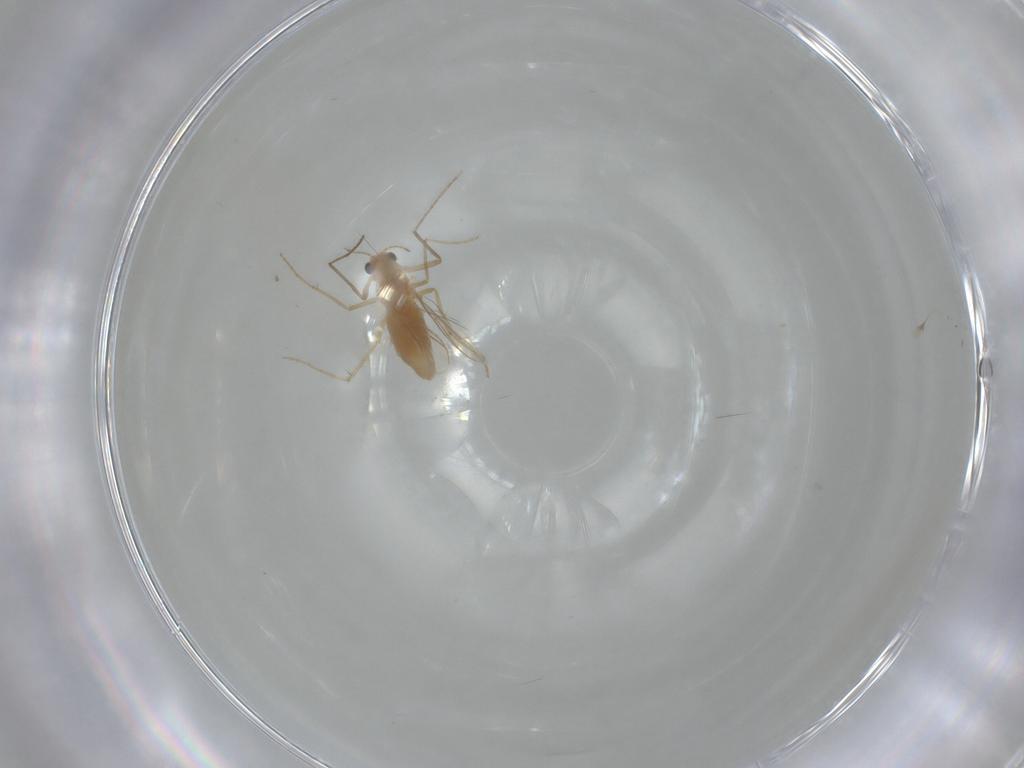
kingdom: Animalia
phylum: Arthropoda
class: Insecta
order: Diptera
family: Chironomidae
